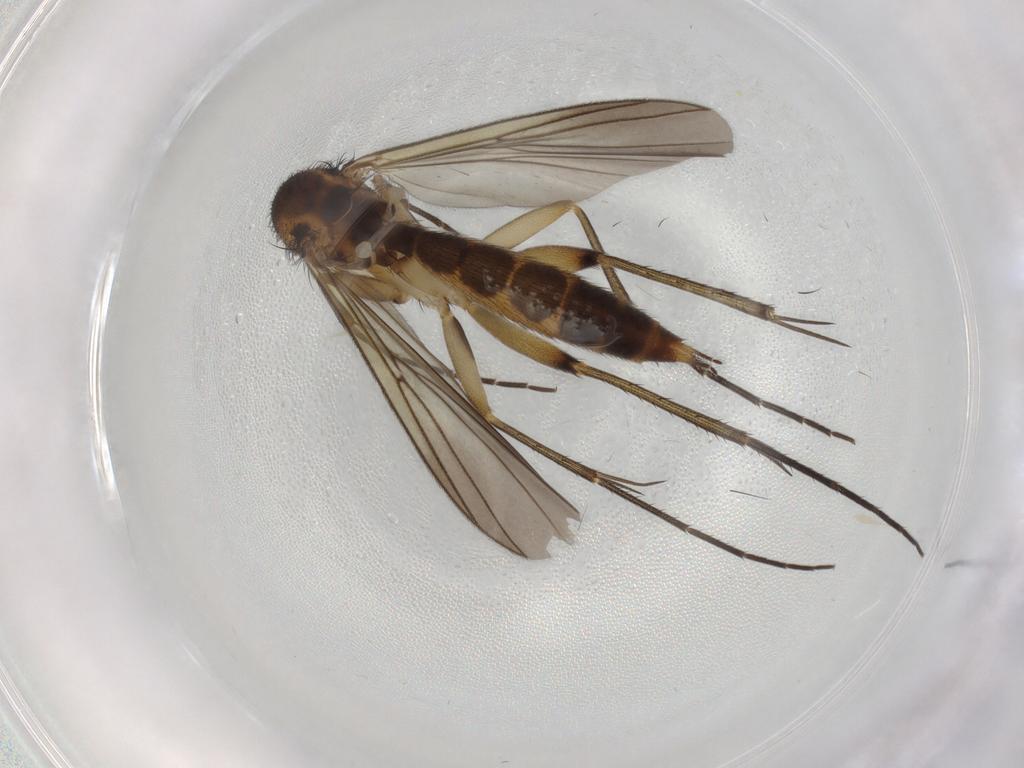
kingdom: Animalia
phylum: Arthropoda
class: Insecta
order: Diptera
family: Mycetophilidae
